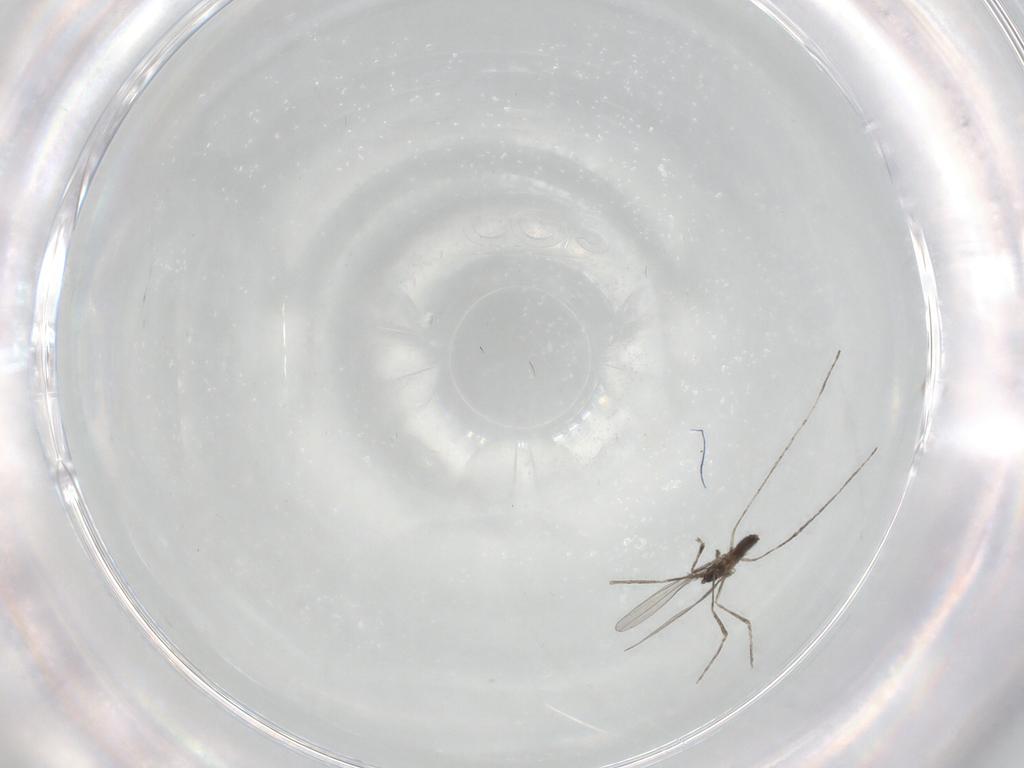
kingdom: Animalia
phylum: Arthropoda
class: Insecta
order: Diptera
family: Cecidomyiidae
